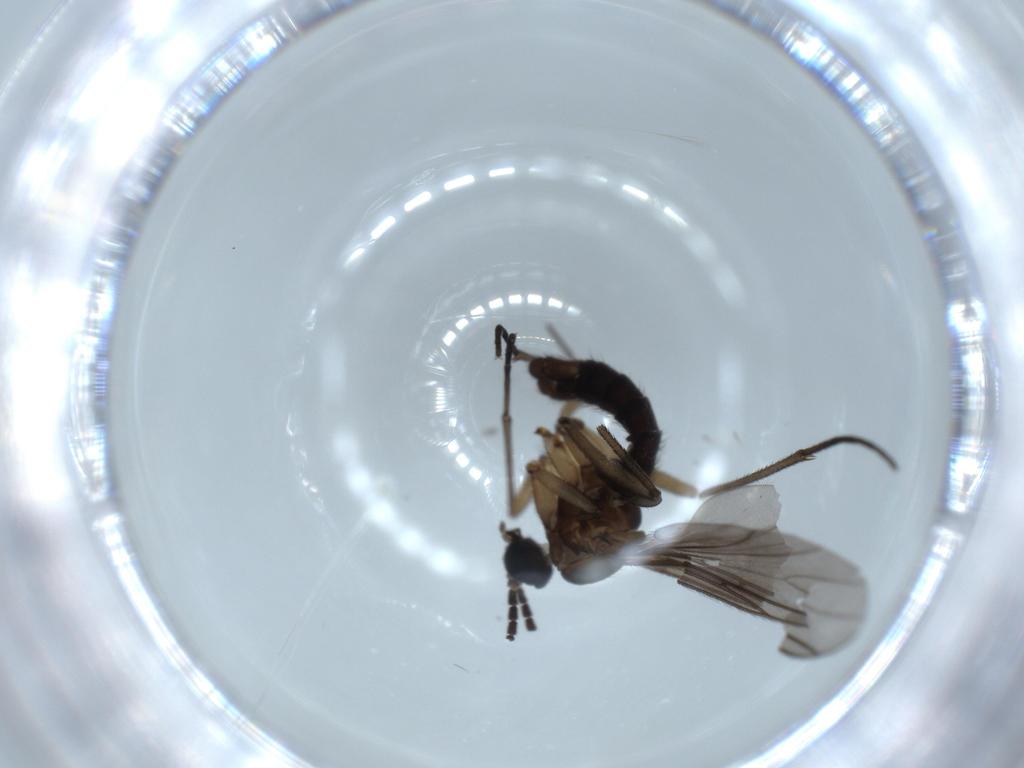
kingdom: Animalia
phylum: Arthropoda
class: Insecta
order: Diptera
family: Sciaridae
